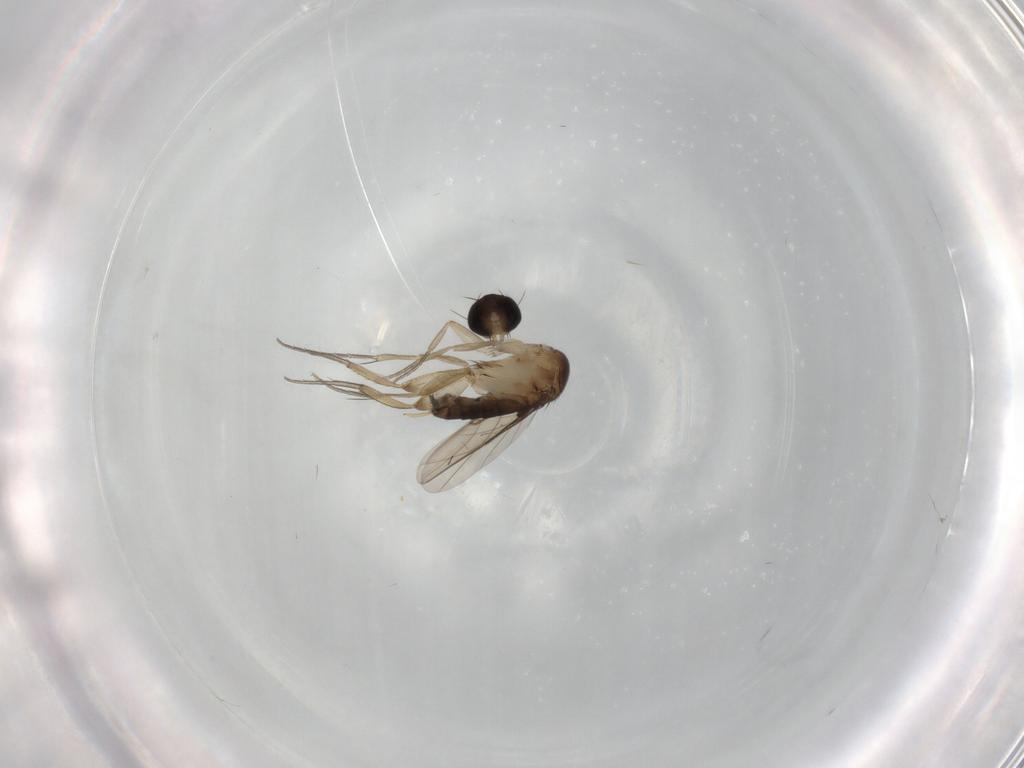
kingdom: Animalia
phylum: Arthropoda
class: Insecta
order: Diptera
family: Phoridae
